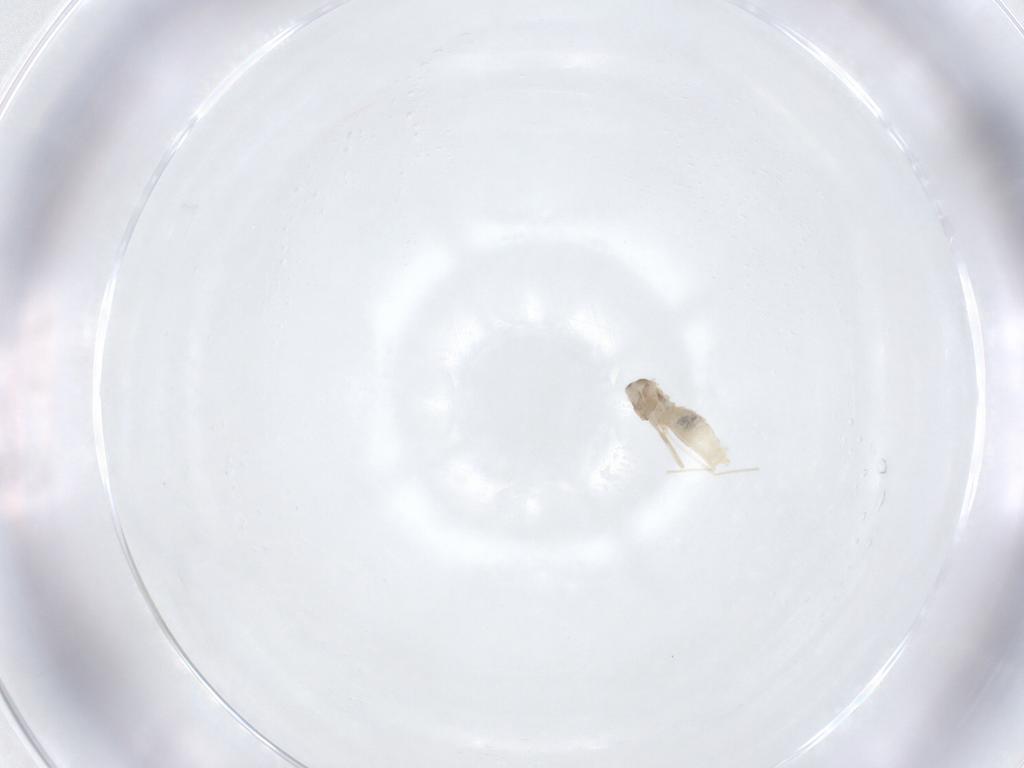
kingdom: Animalia
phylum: Arthropoda
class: Insecta
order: Diptera
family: Cecidomyiidae
